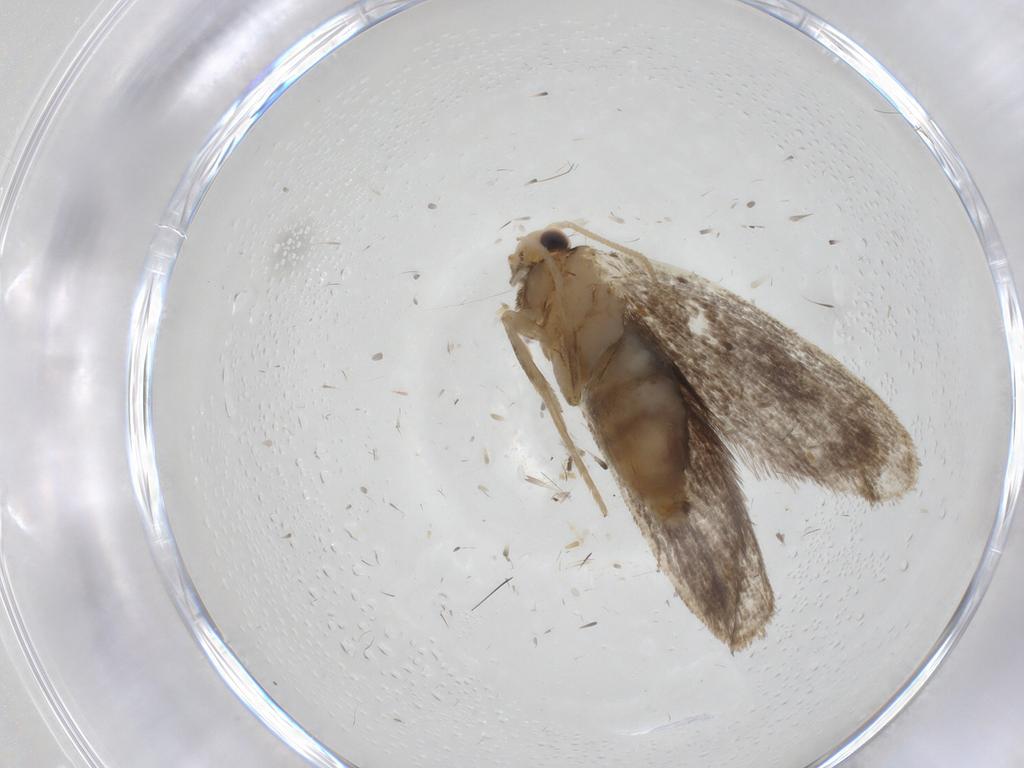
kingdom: Animalia
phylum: Arthropoda
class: Insecta
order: Lepidoptera
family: Dryadaulidae
